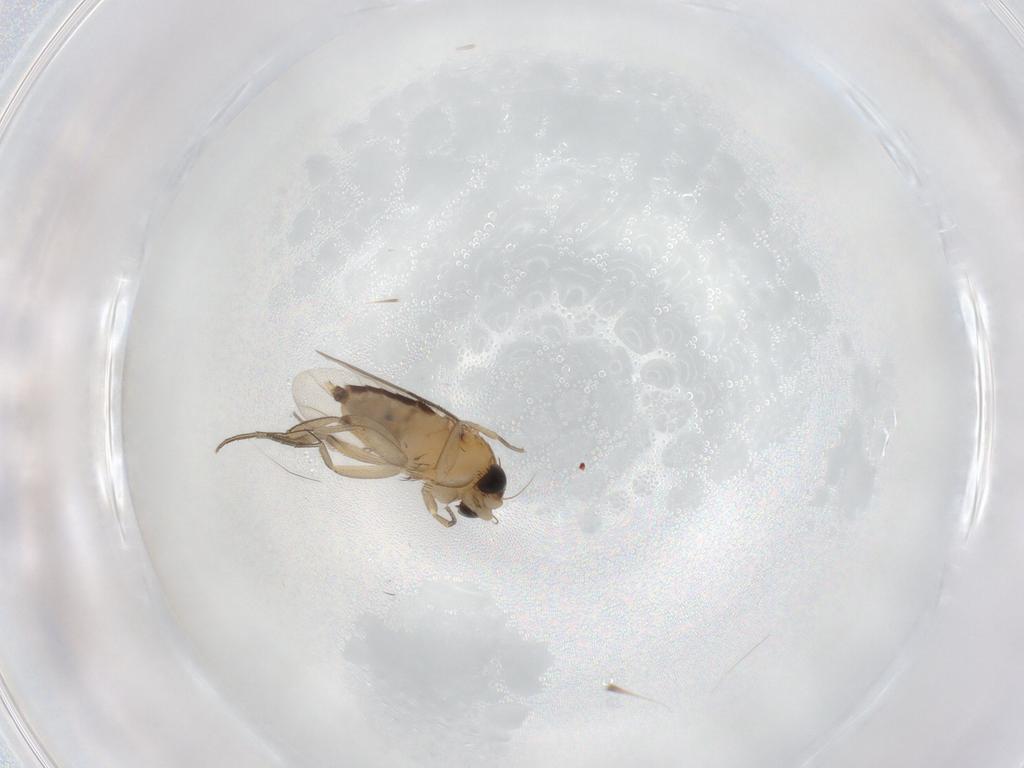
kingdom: Animalia
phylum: Arthropoda
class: Insecta
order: Diptera
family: Phoridae
